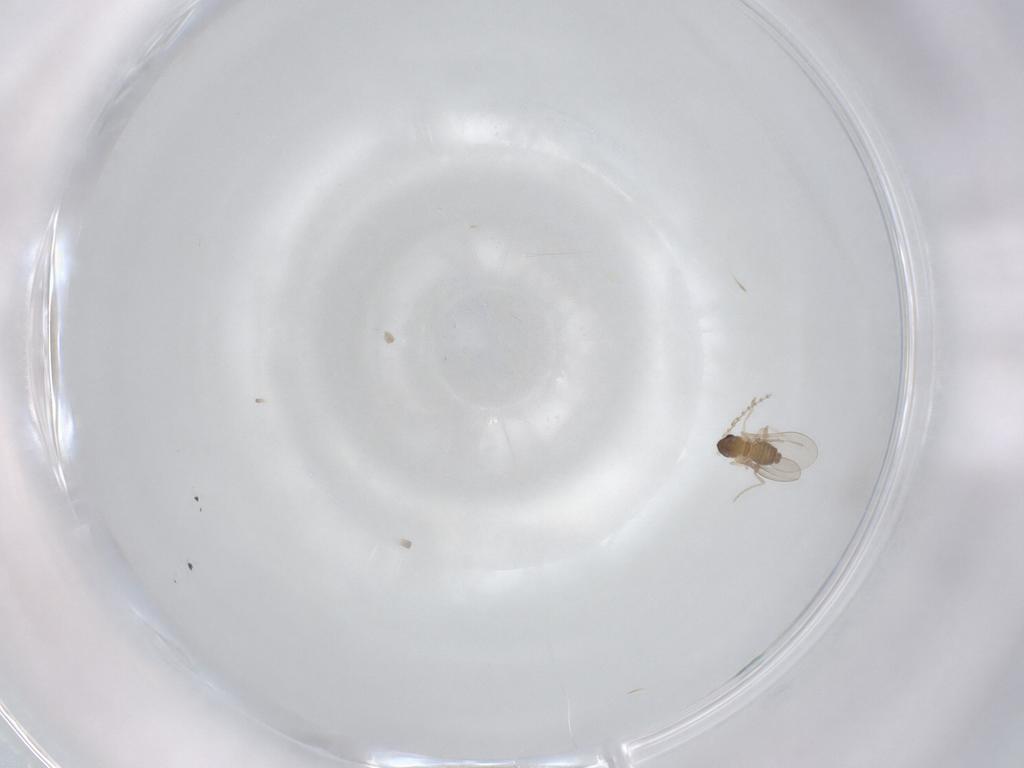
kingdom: Animalia
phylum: Arthropoda
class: Insecta
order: Diptera
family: Cecidomyiidae
